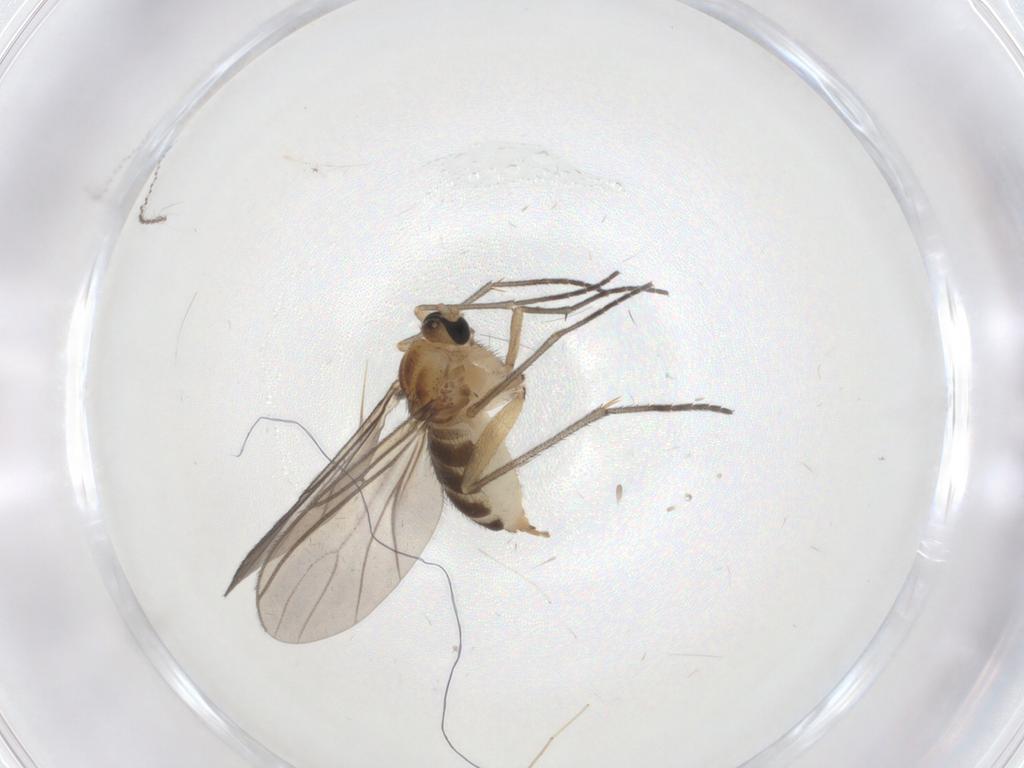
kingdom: Animalia
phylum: Arthropoda
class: Insecta
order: Diptera
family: Sciaridae
